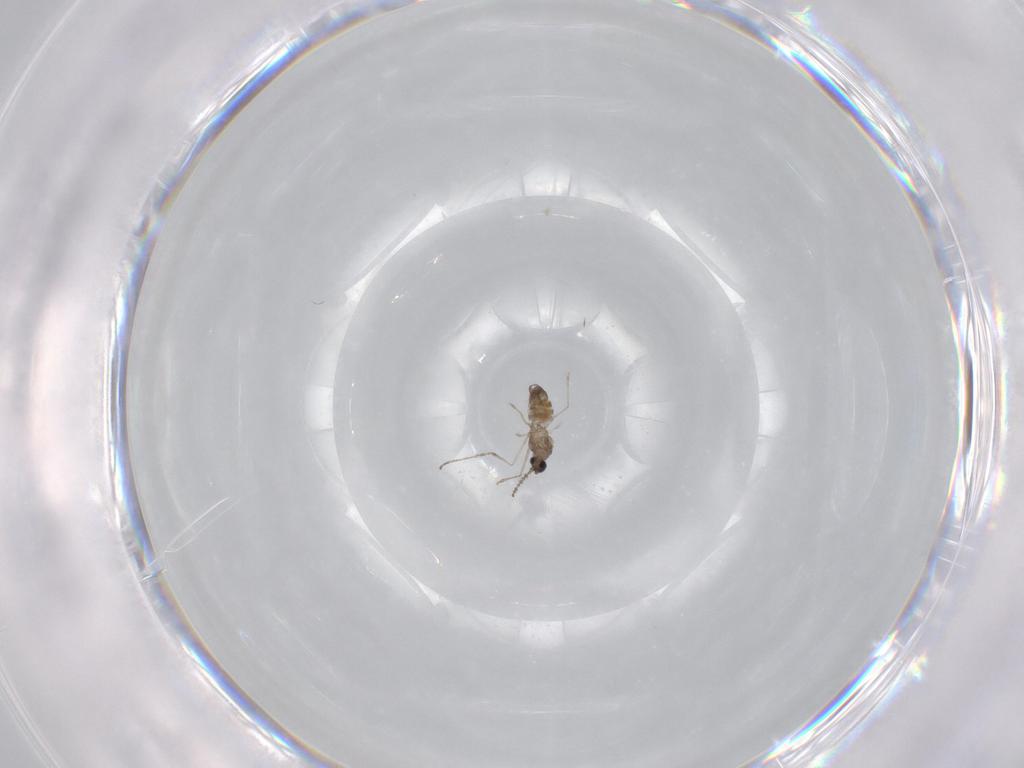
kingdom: Animalia
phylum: Arthropoda
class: Insecta
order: Diptera
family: Cecidomyiidae
